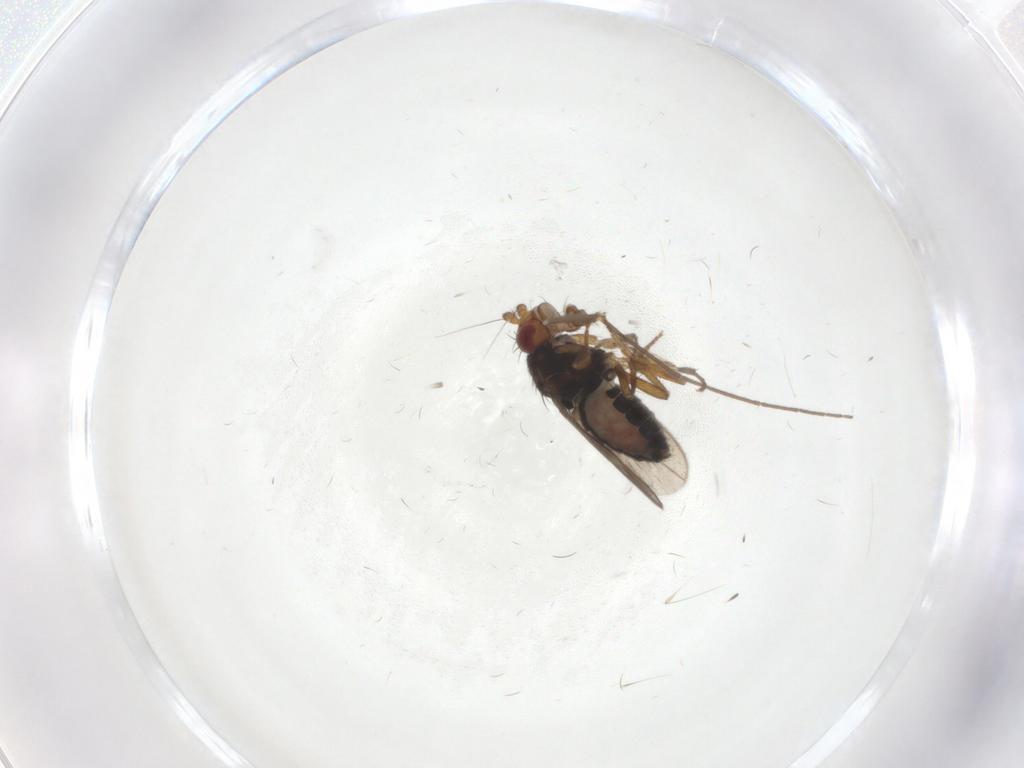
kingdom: Animalia
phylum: Arthropoda
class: Insecta
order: Diptera
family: Sphaeroceridae
